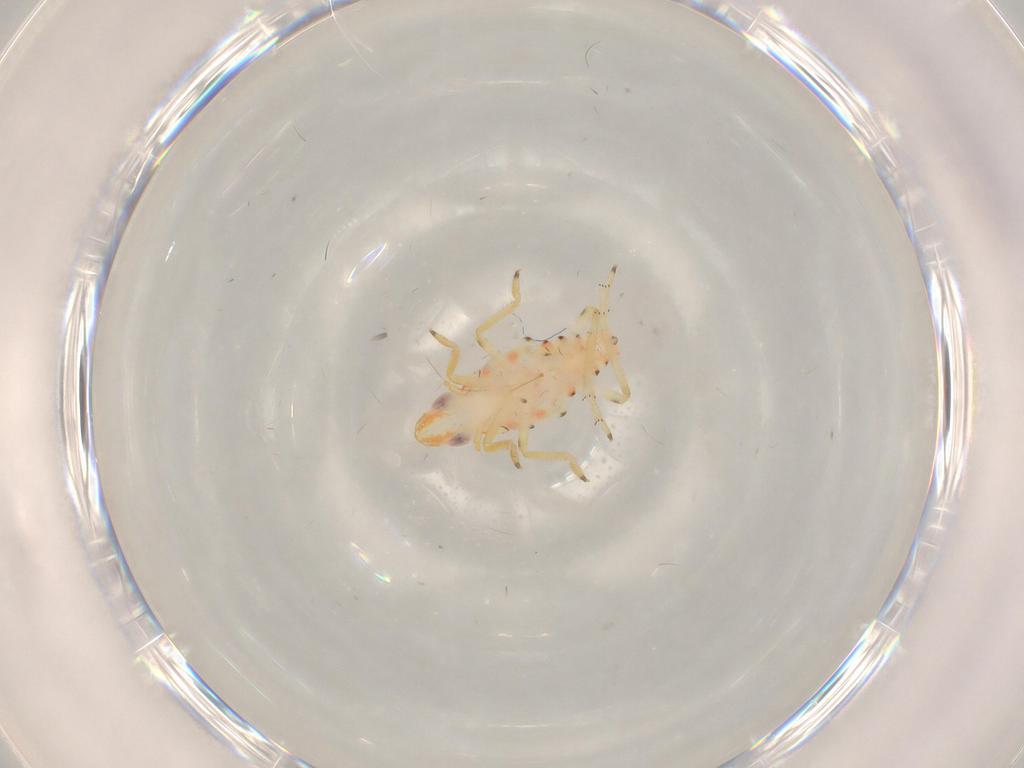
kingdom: Animalia
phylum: Arthropoda
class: Insecta
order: Hemiptera
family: Tropiduchidae
